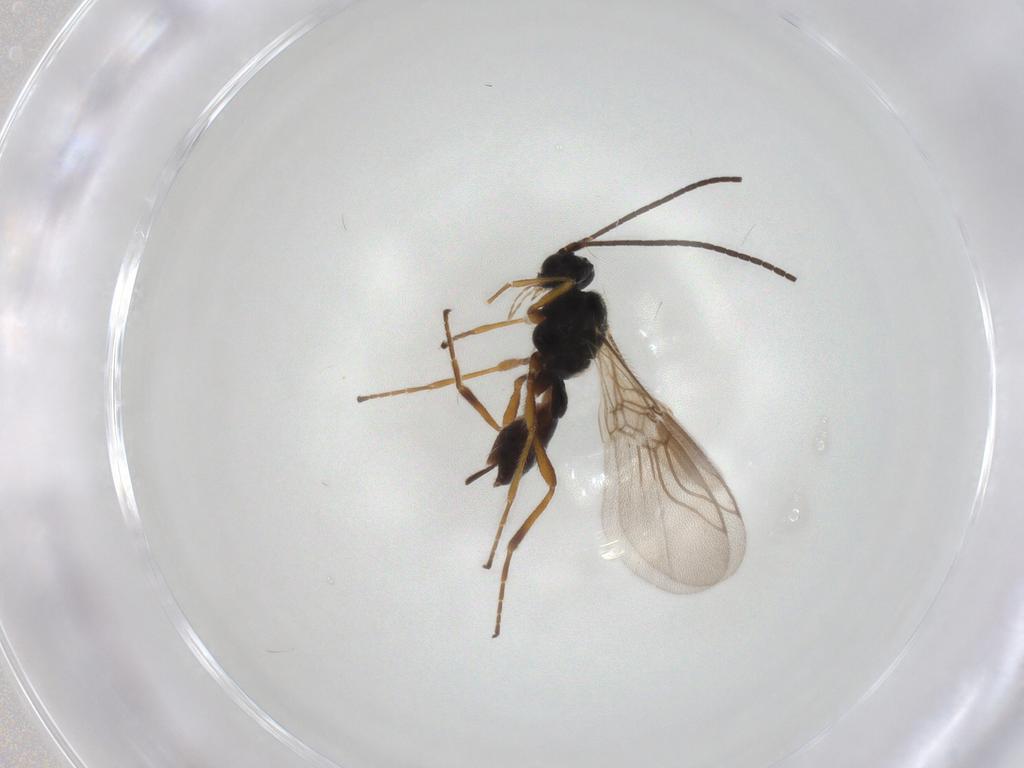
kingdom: Animalia
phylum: Arthropoda
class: Insecta
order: Hymenoptera
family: Braconidae
